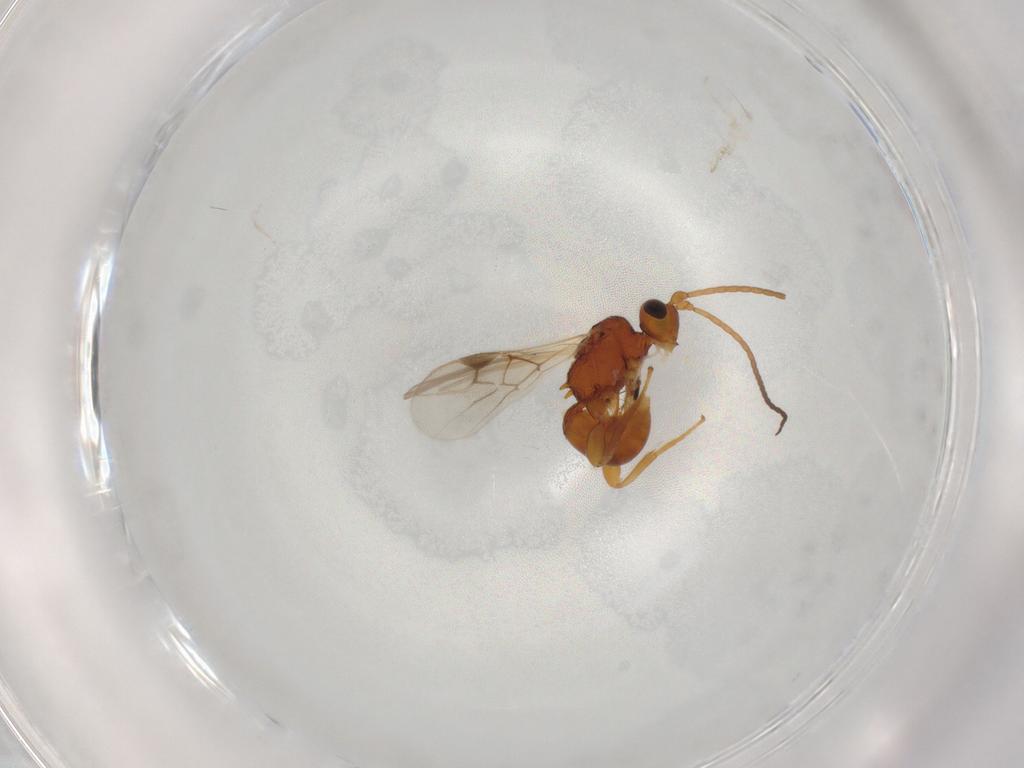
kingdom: Animalia
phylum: Arthropoda
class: Insecta
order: Hymenoptera
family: Braconidae
